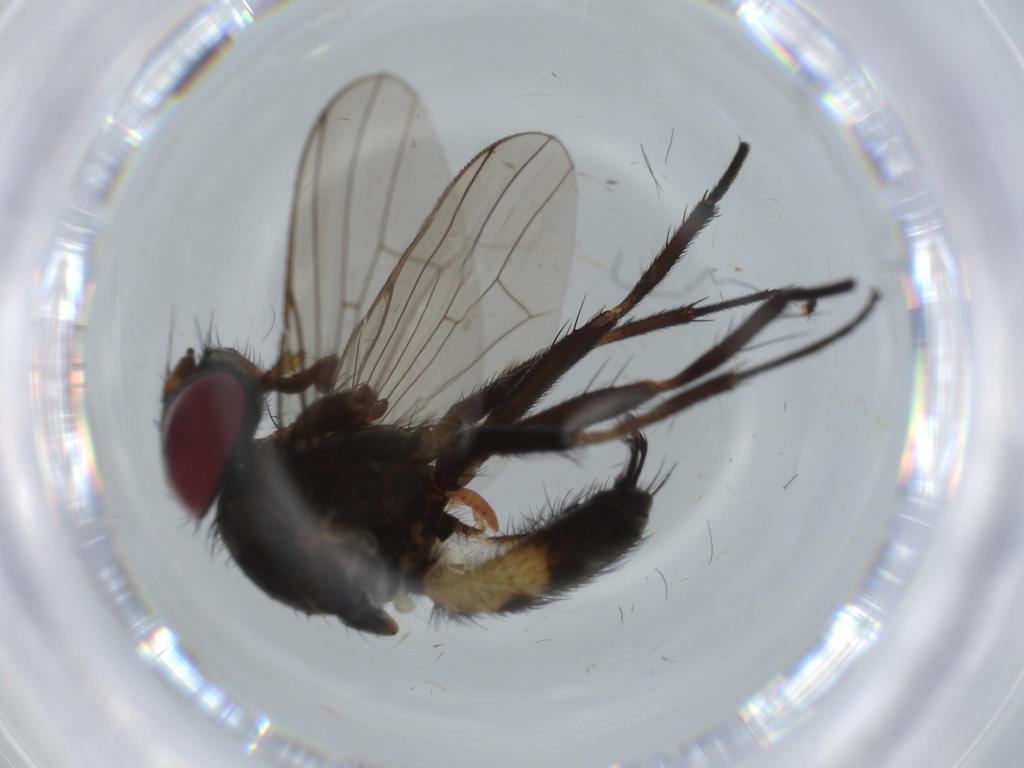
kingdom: Animalia
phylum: Arthropoda
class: Insecta
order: Diptera
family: Fannia
